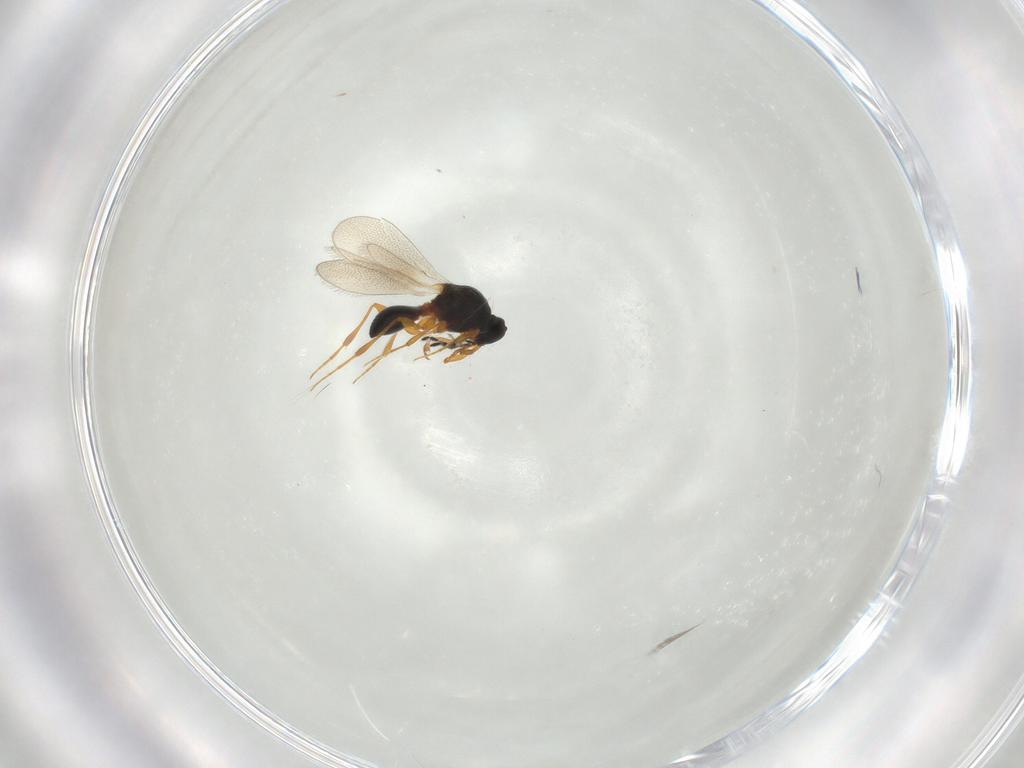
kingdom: Animalia
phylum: Arthropoda
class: Insecta
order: Hymenoptera
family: Platygastridae
